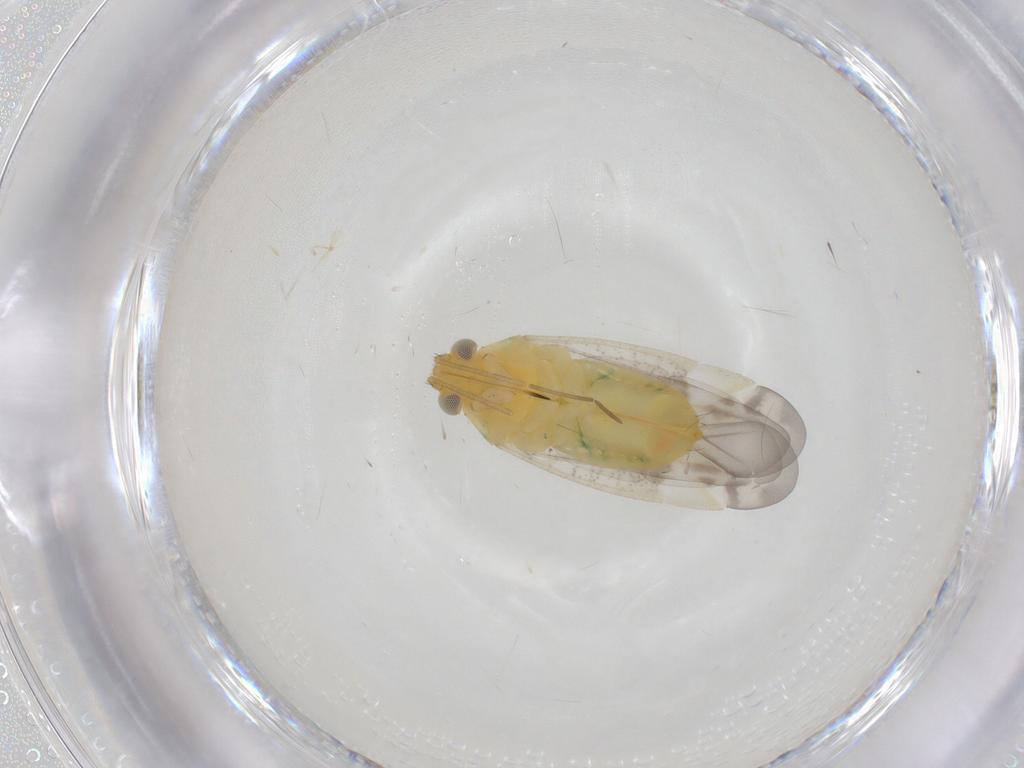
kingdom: Animalia
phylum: Arthropoda
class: Insecta
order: Hemiptera
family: Miridae
